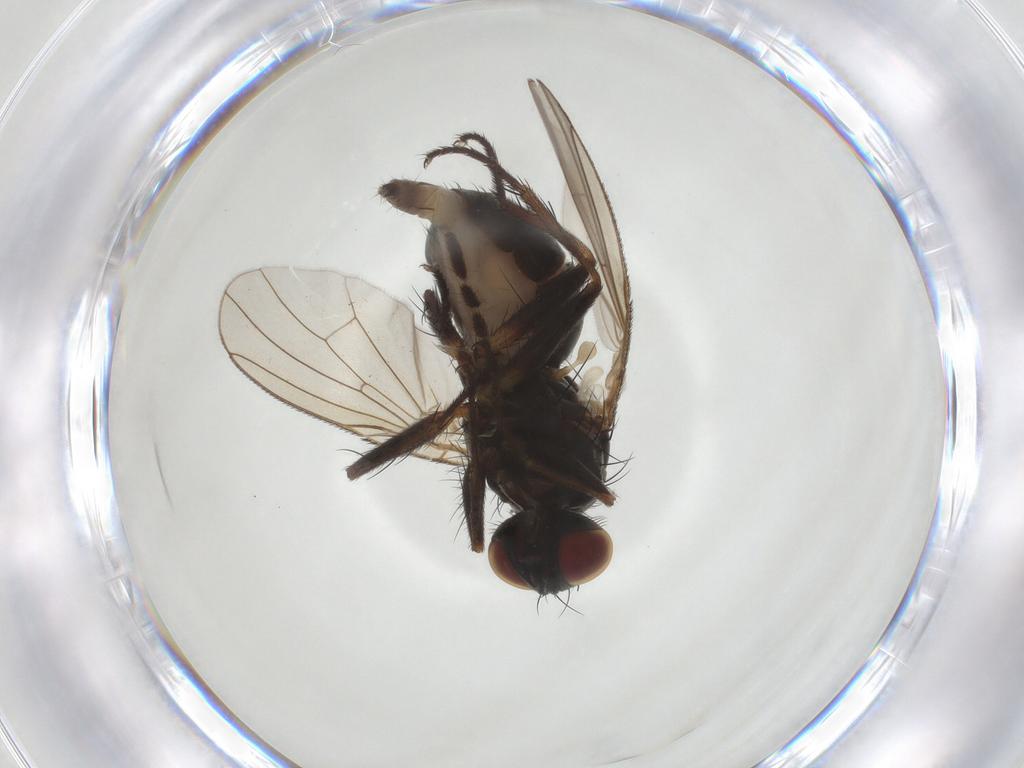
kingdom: Animalia
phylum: Arthropoda
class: Insecta
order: Diptera
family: Muscidae
